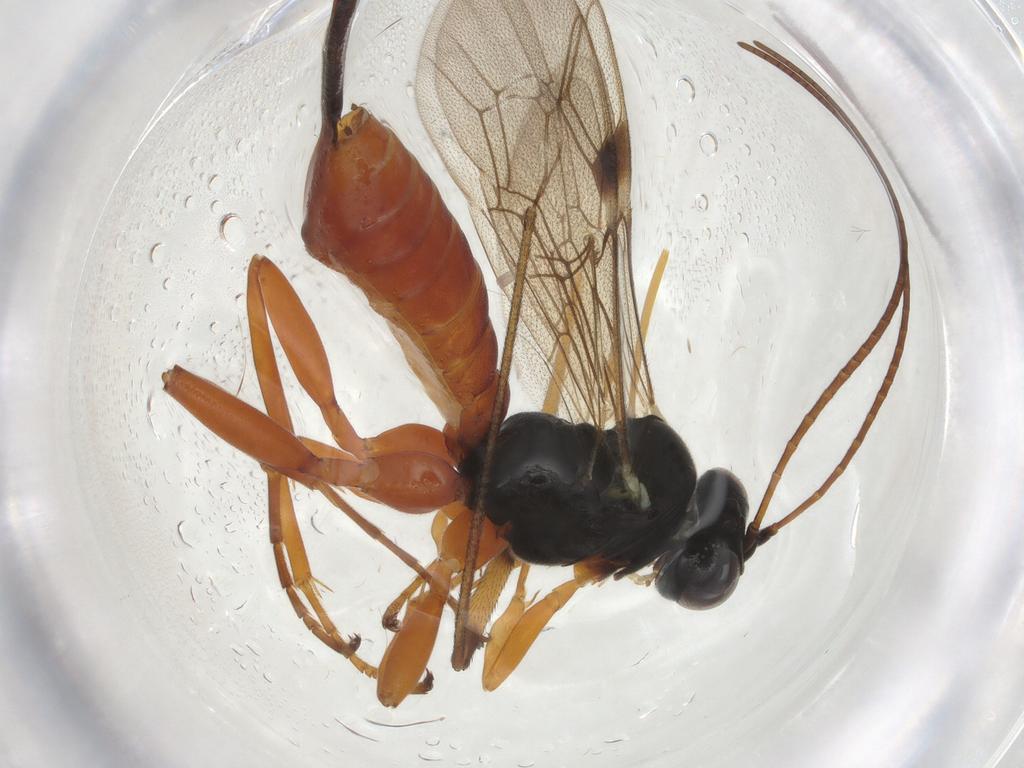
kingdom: Animalia
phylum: Arthropoda
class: Insecta
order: Hymenoptera
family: Ichneumonidae
